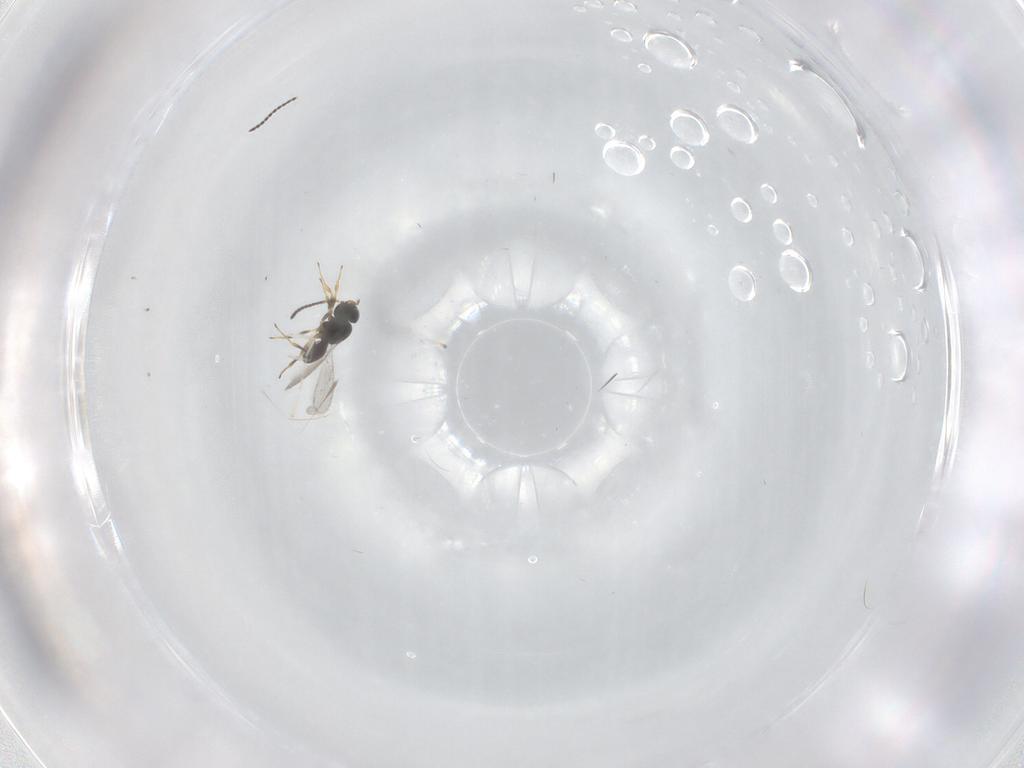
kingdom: Animalia
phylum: Arthropoda
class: Insecta
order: Hymenoptera
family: Scelionidae
